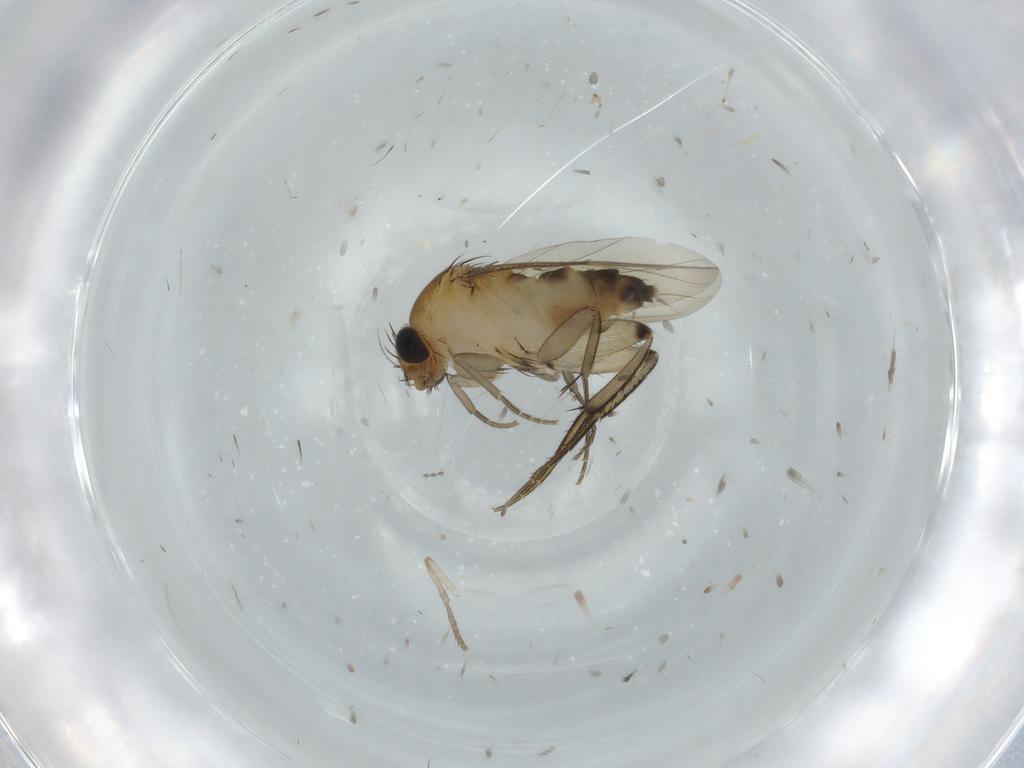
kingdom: Animalia
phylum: Arthropoda
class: Insecta
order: Diptera
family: Phoridae
